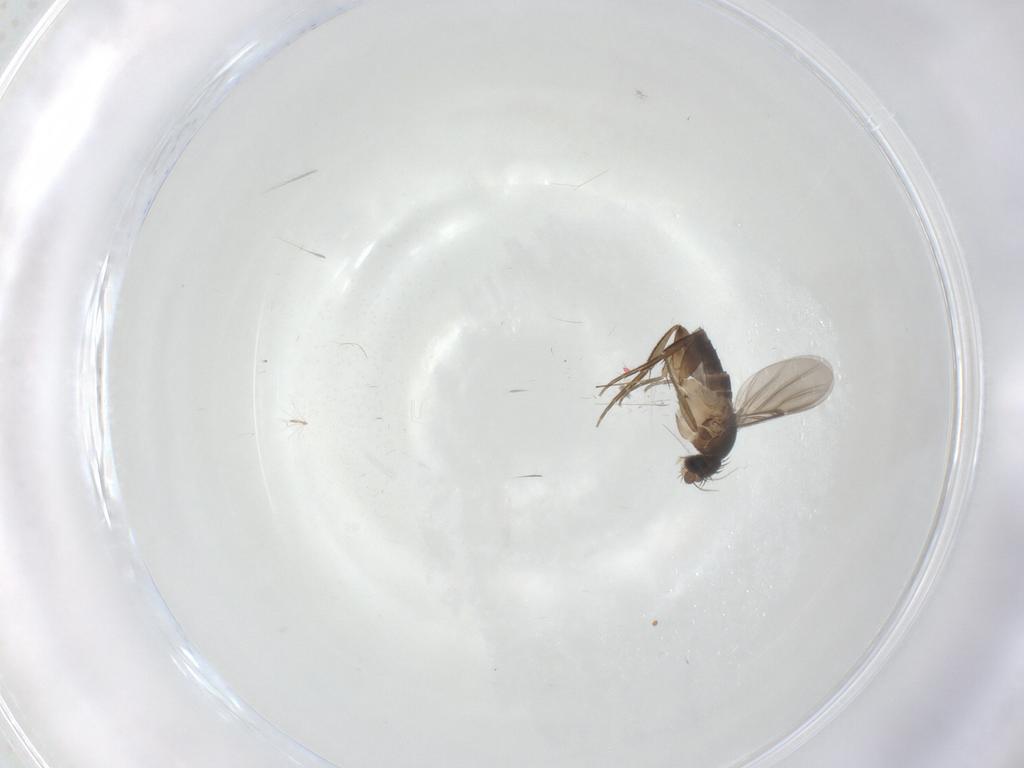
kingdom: Animalia
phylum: Arthropoda
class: Insecta
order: Diptera
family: Phoridae
